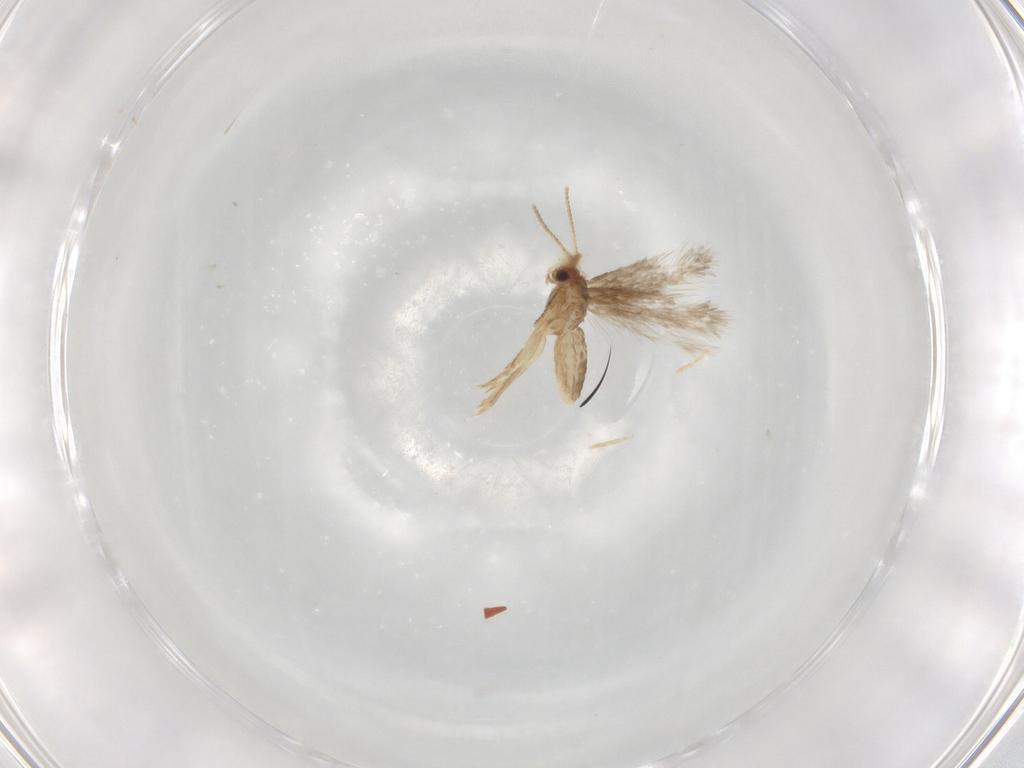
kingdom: Animalia
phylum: Arthropoda
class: Insecta
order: Lepidoptera
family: Nepticulidae
